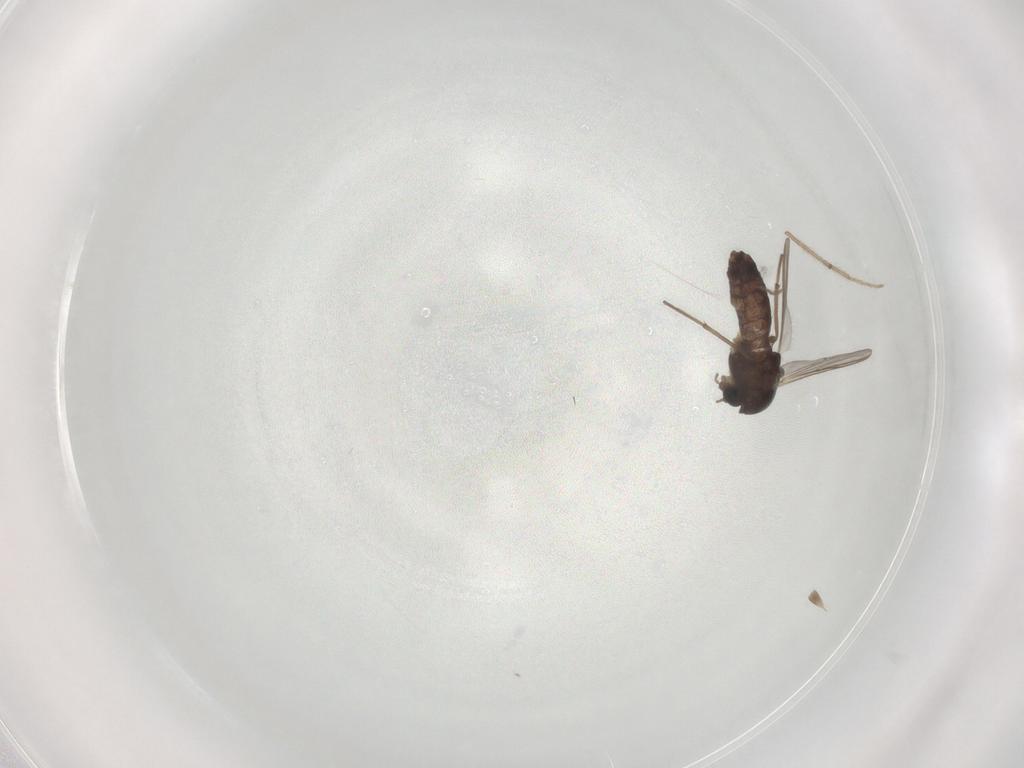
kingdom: Animalia
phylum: Arthropoda
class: Insecta
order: Diptera
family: Chironomidae
